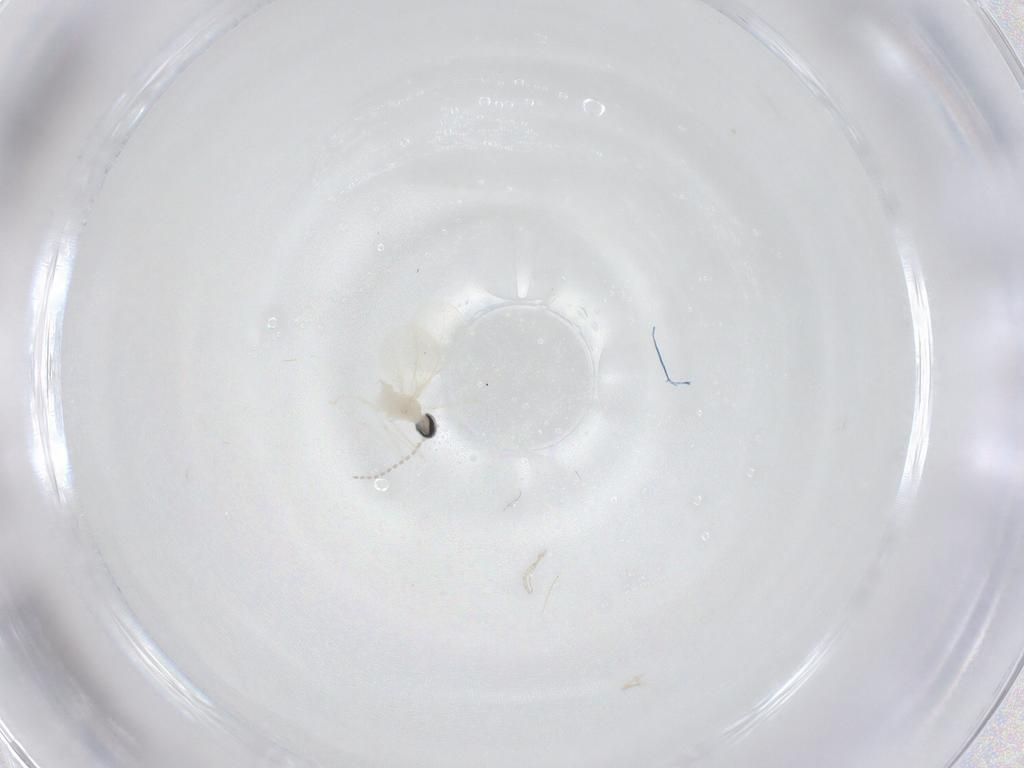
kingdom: Animalia
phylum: Arthropoda
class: Insecta
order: Diptera
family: Cecidomyiidae
